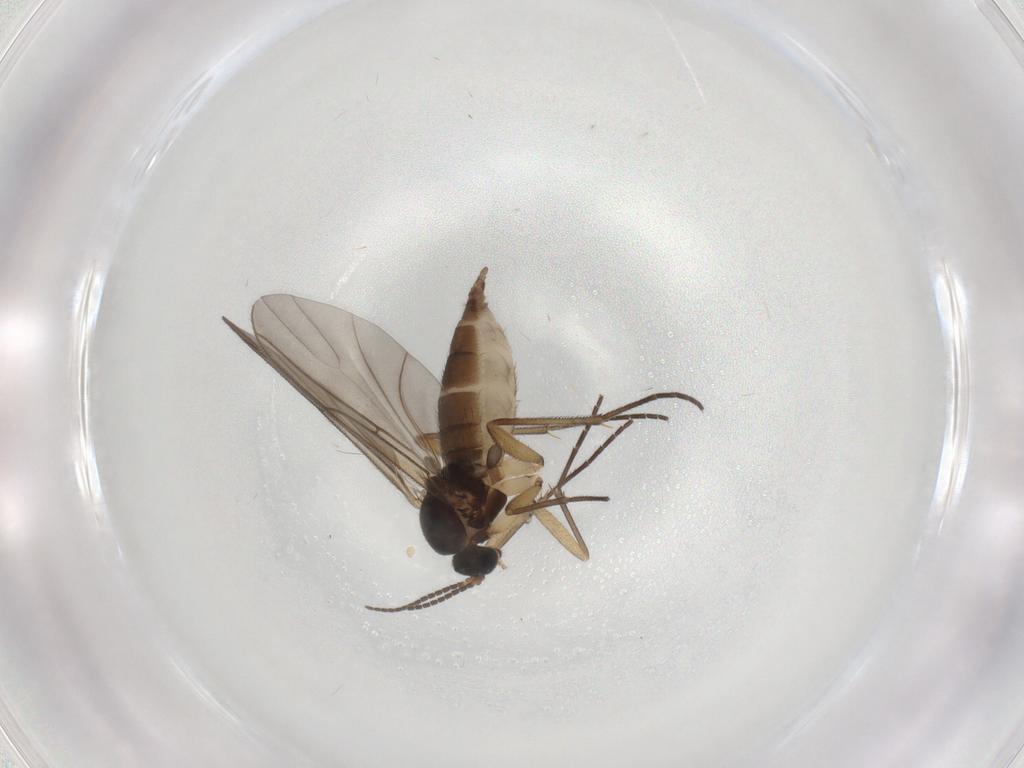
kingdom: Animalia
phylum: Arthropoda
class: Insecta
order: Diptera
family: Sciaridae
